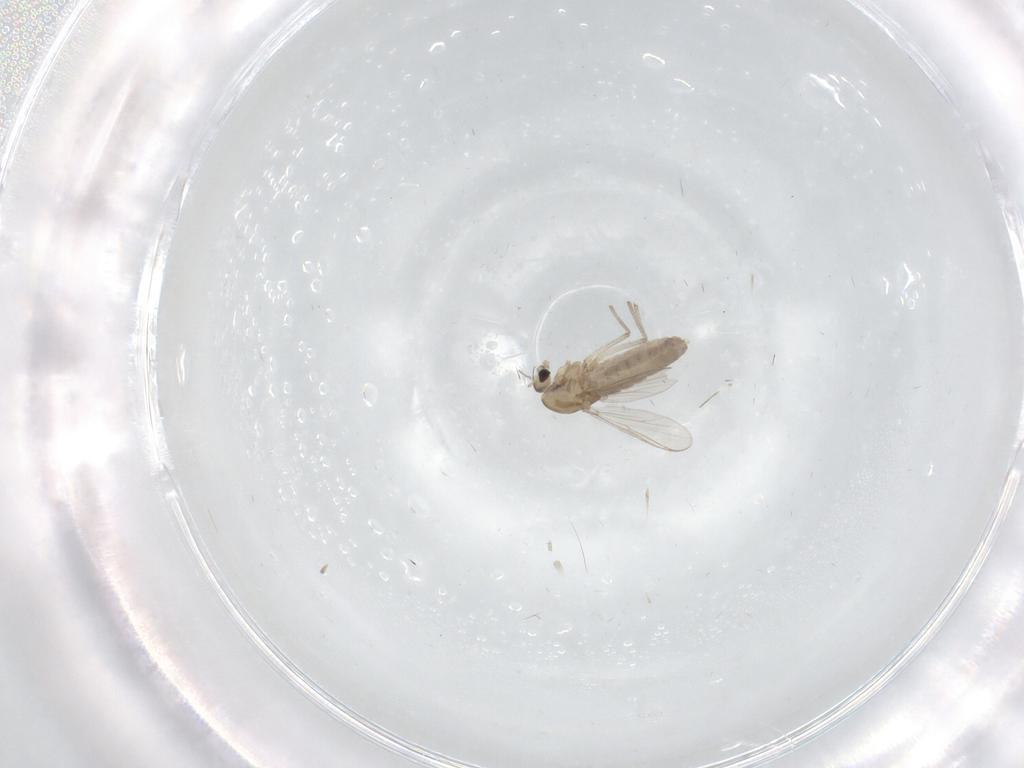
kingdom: Animalia
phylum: Arthropoda
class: Insecta
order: Diptera
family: Chironomidae
